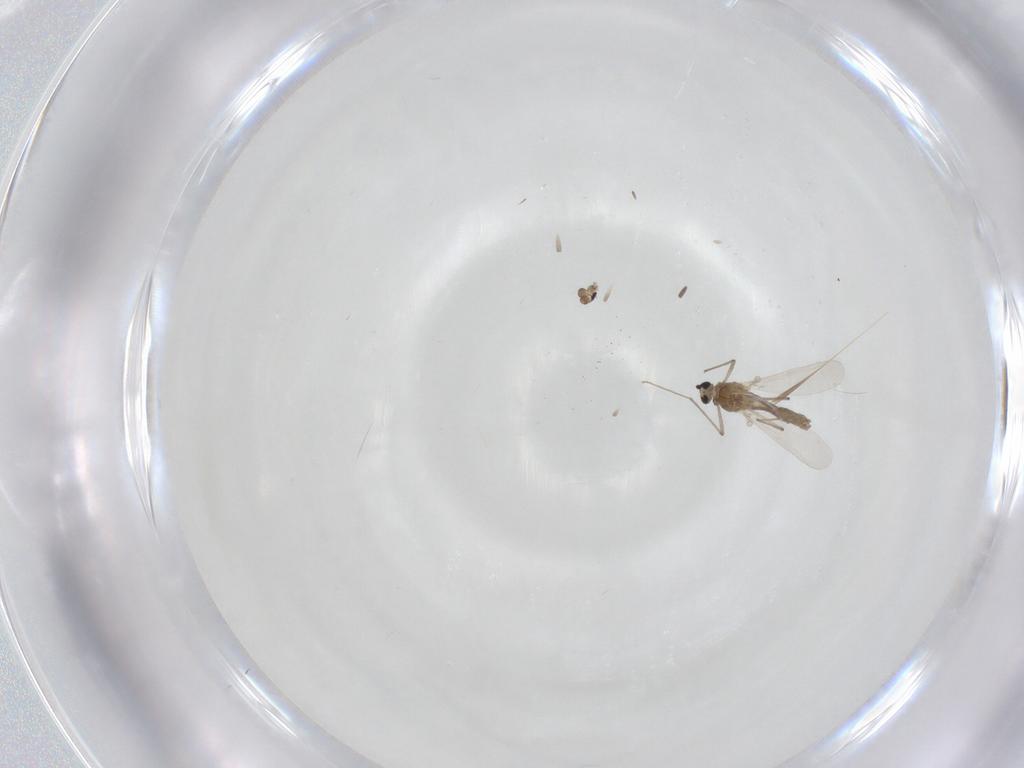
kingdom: Animalia
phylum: Arthropoda
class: Insecta
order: Diptera
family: Chironomidae
